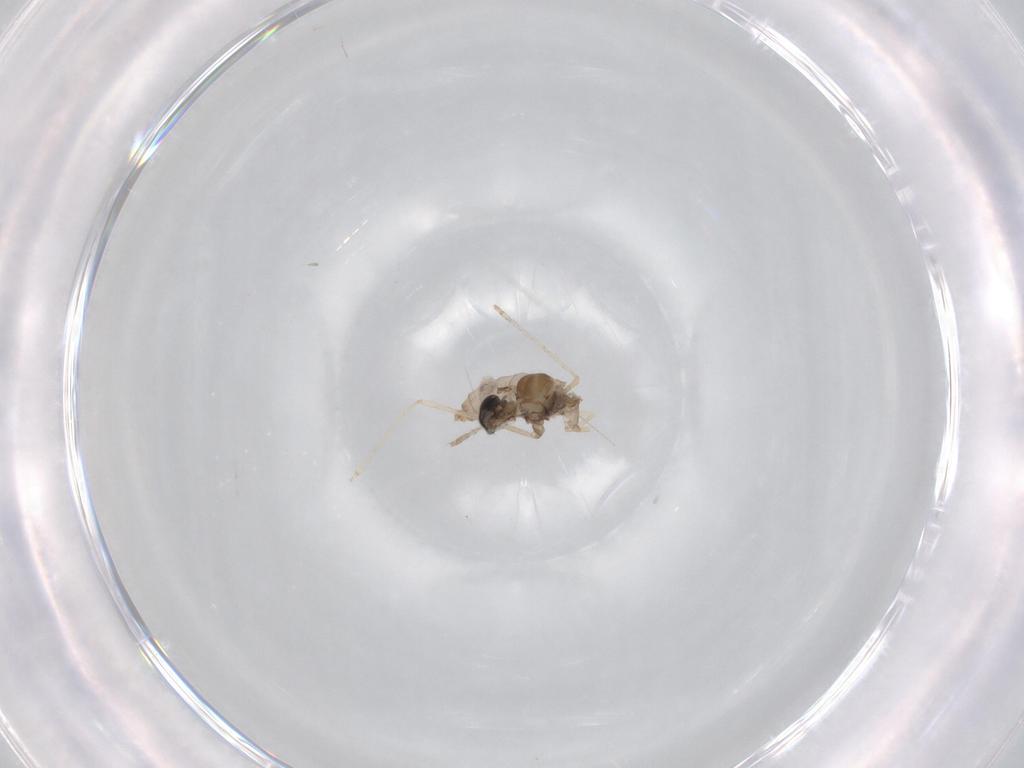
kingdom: Animalia
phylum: Arthropoda
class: Insecta
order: Diptera
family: Cecidomyiidae
